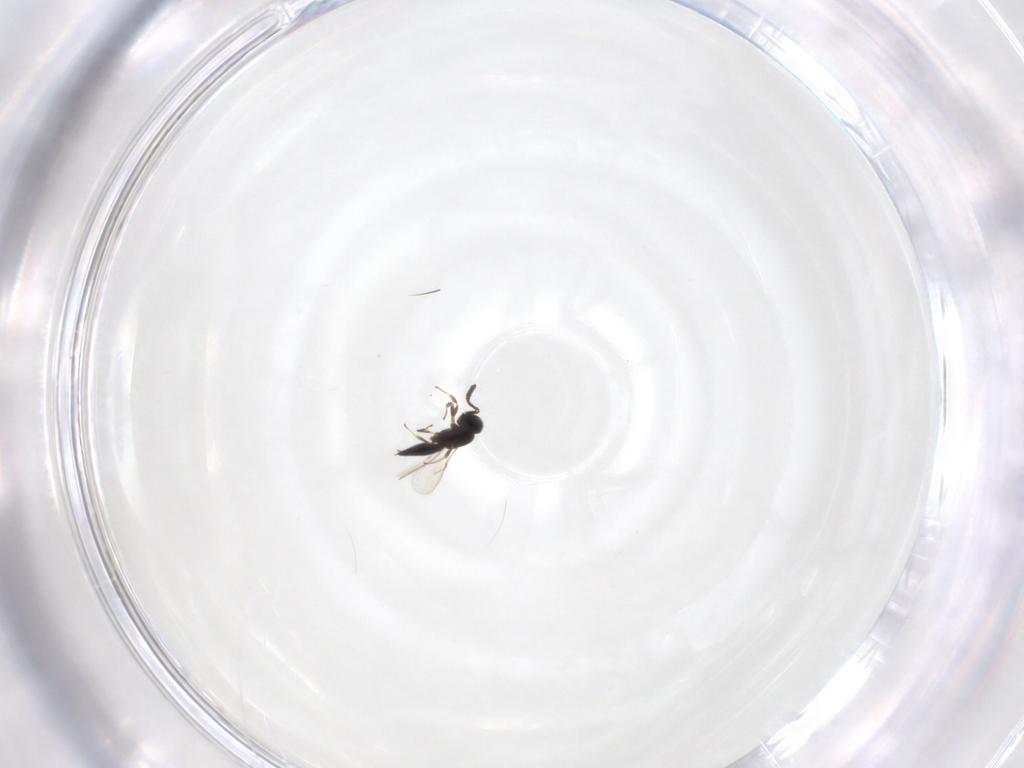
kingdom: Animalia
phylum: Arthropoda
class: Insecta
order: Hymenoptera
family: Scelionidae
